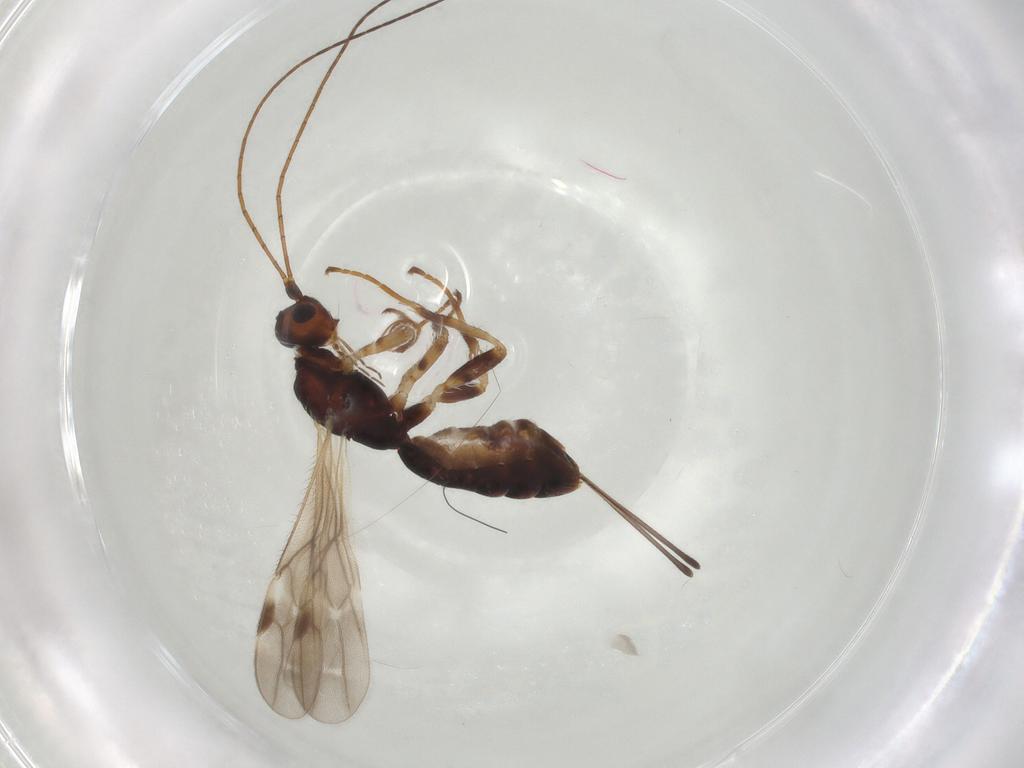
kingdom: Animalia
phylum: Arthropoda
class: Insecta
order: Hymenoptera
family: Braconidae
